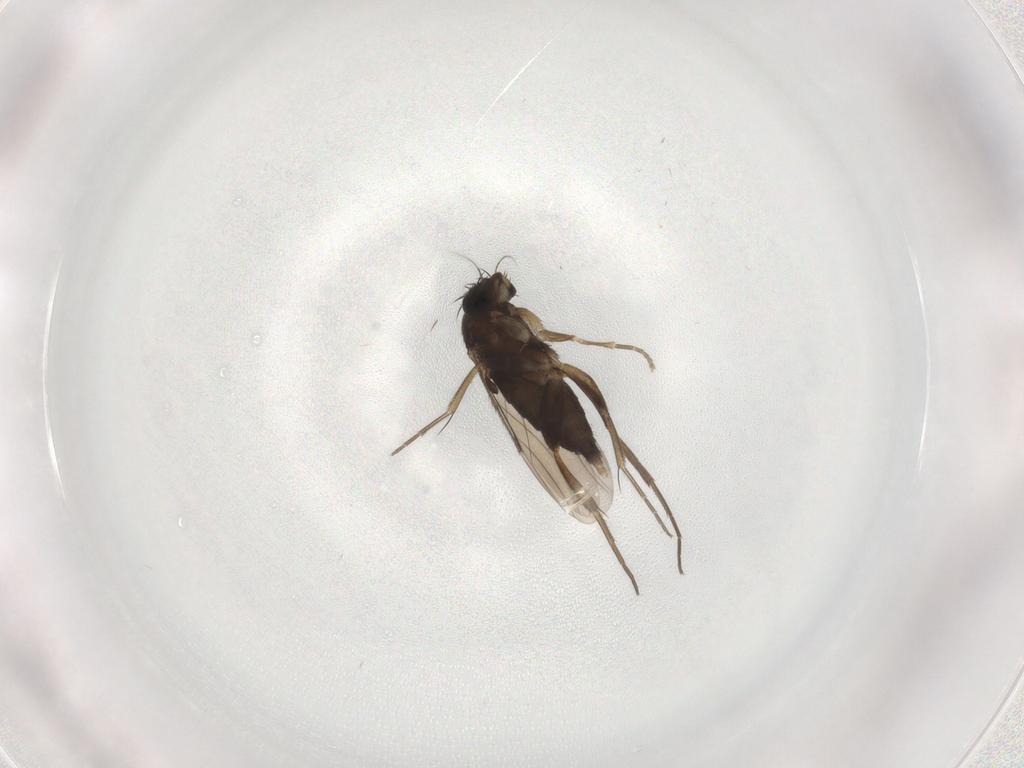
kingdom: Animalia
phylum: Arthropoda
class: Insecta
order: Diptera
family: Phoridae
